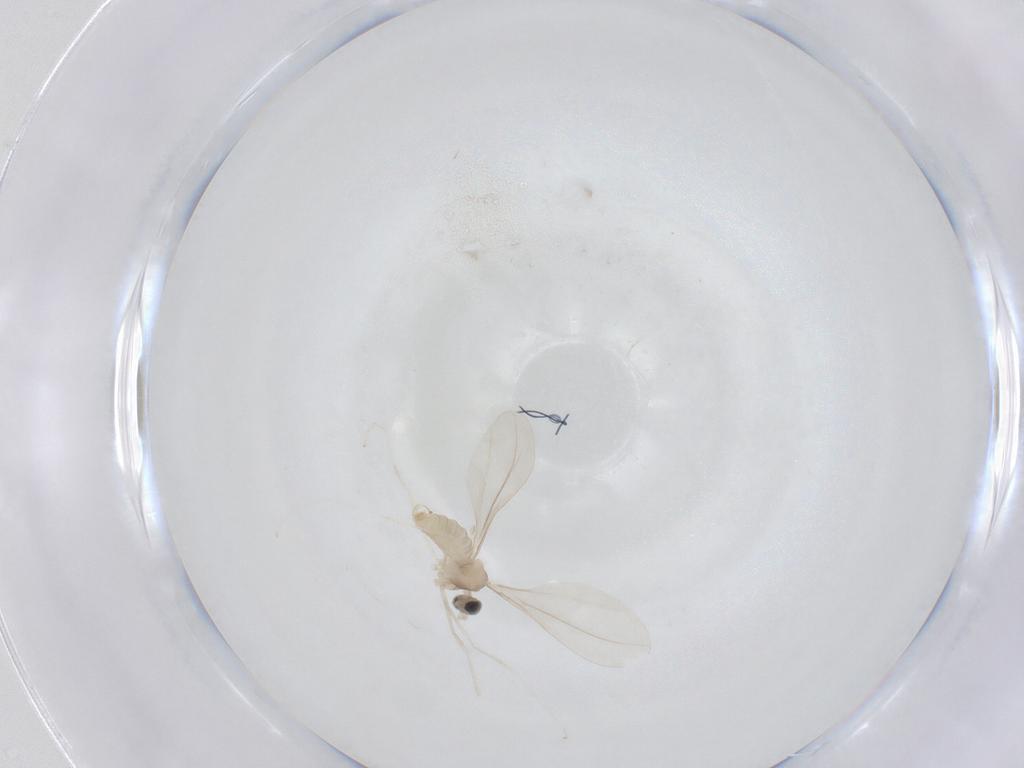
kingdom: Animalia
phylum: Arthropoda
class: Insecta
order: Diptera
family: Cecidomyiidae
